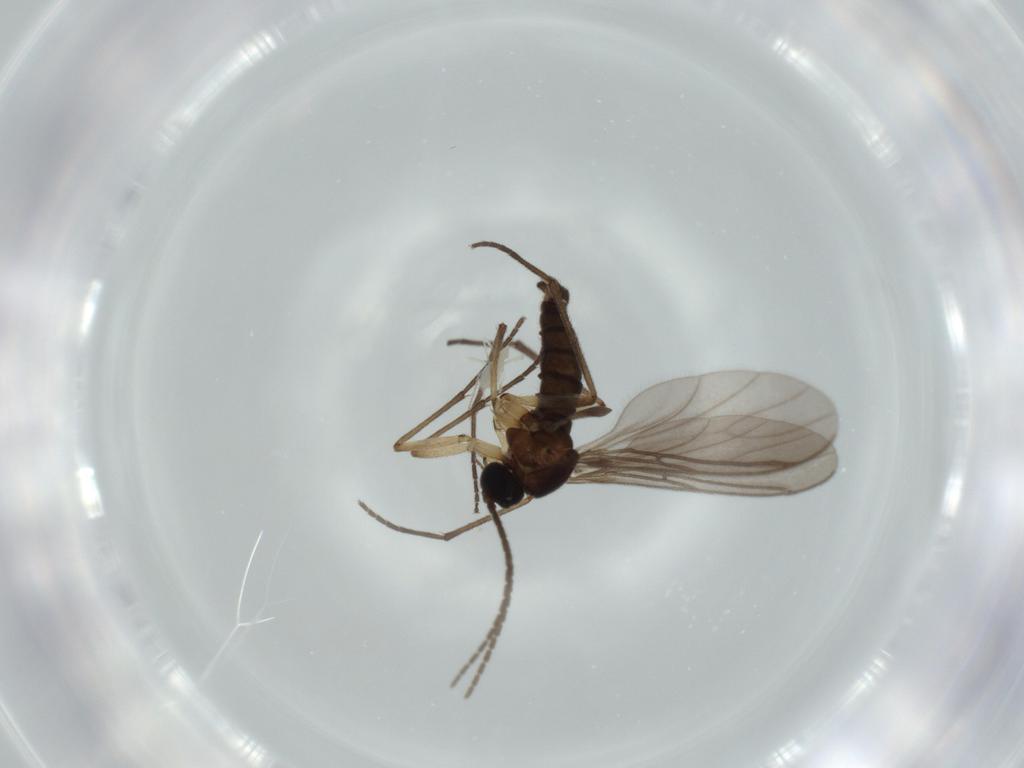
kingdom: Animalia
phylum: Arthropoda
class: Insecta
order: Diptera
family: Sciaridae
